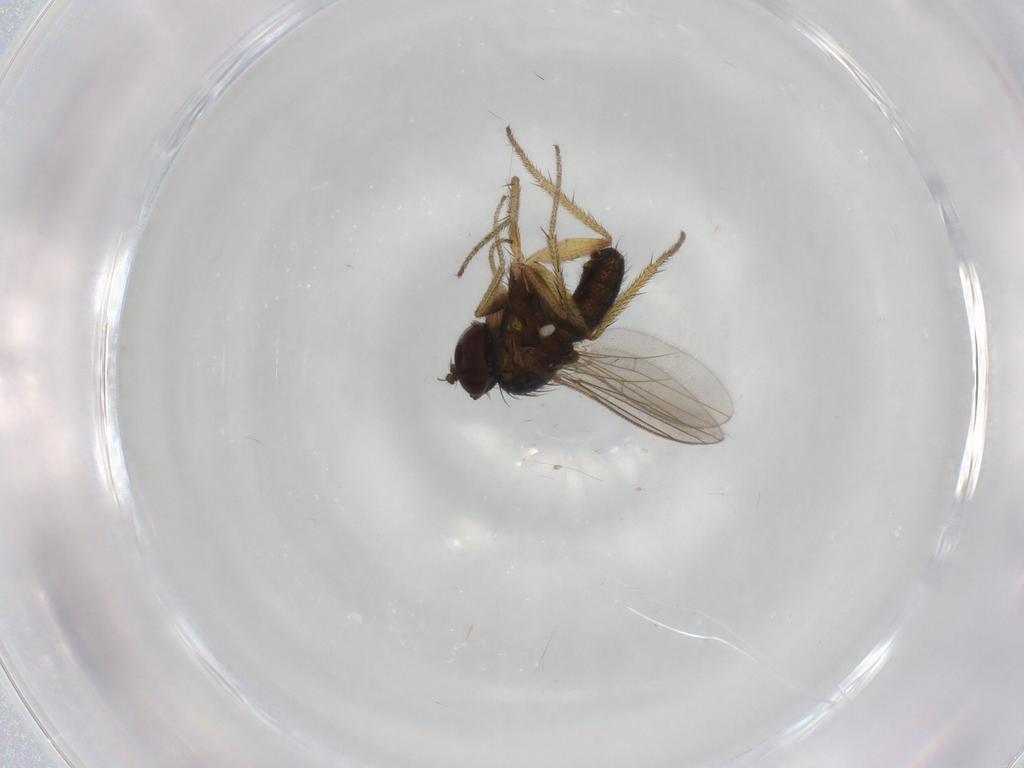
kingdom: Animalia
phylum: Arthropoda
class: Insecta
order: Diptera
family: Dolichopodidae
